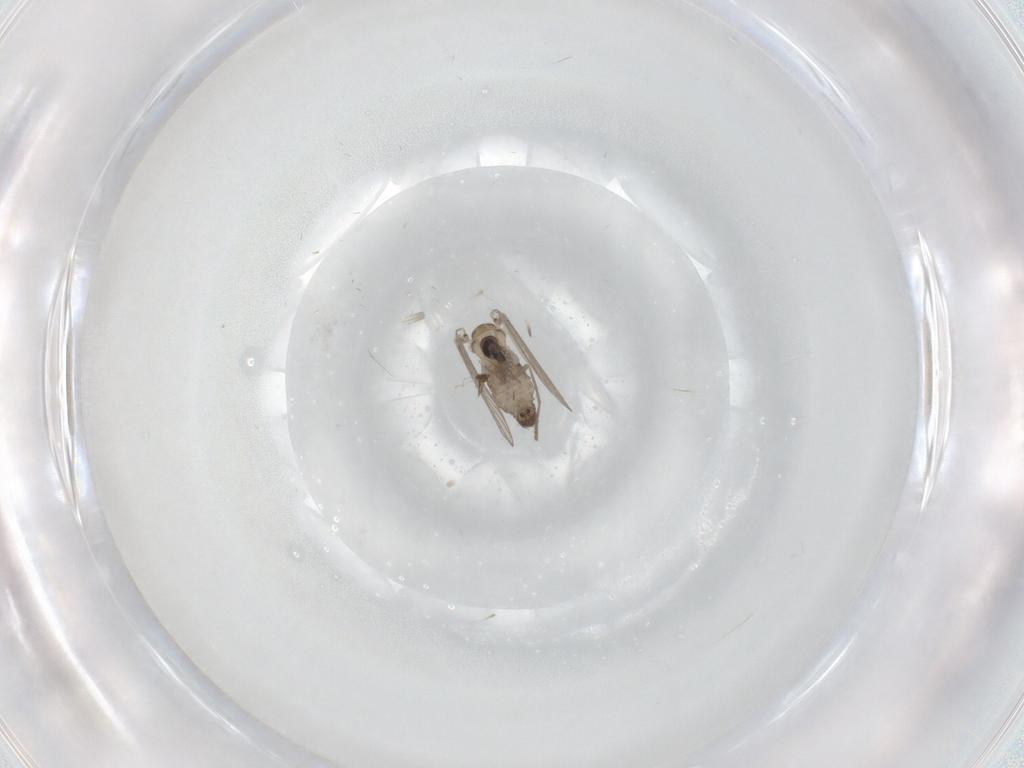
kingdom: Animalia
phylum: Arthropoda
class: Insecta
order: Diptera
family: Psychodidae
